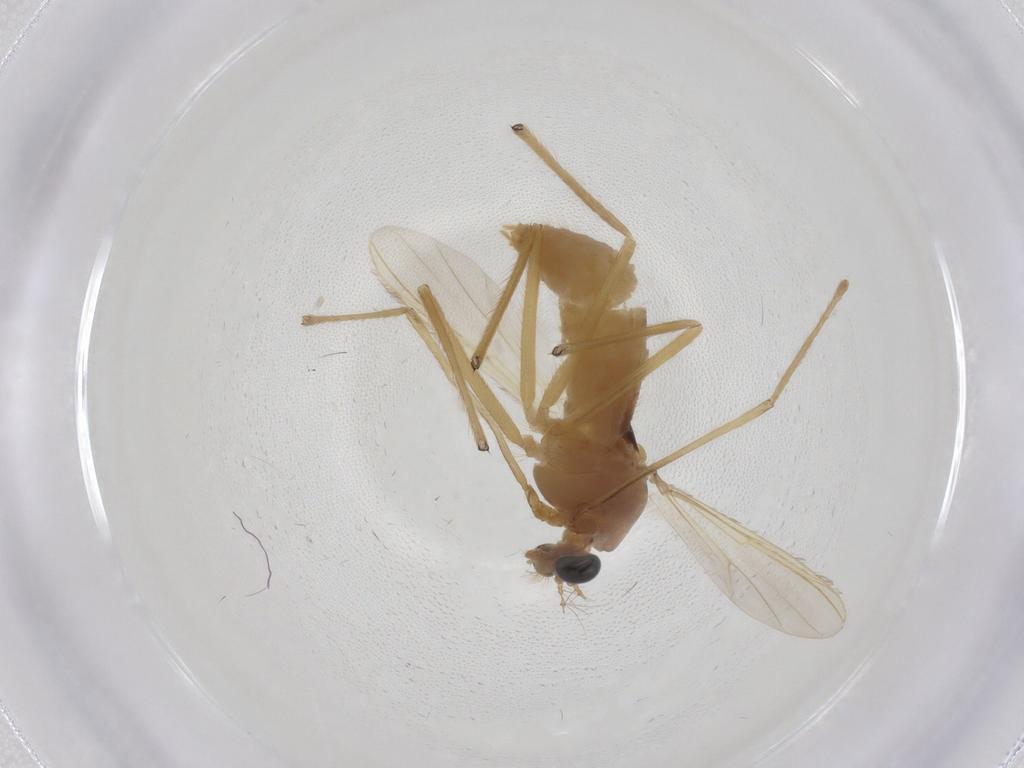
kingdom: Animalia
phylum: Arthropoda
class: Insecta
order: Diptera
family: Chironomidae
